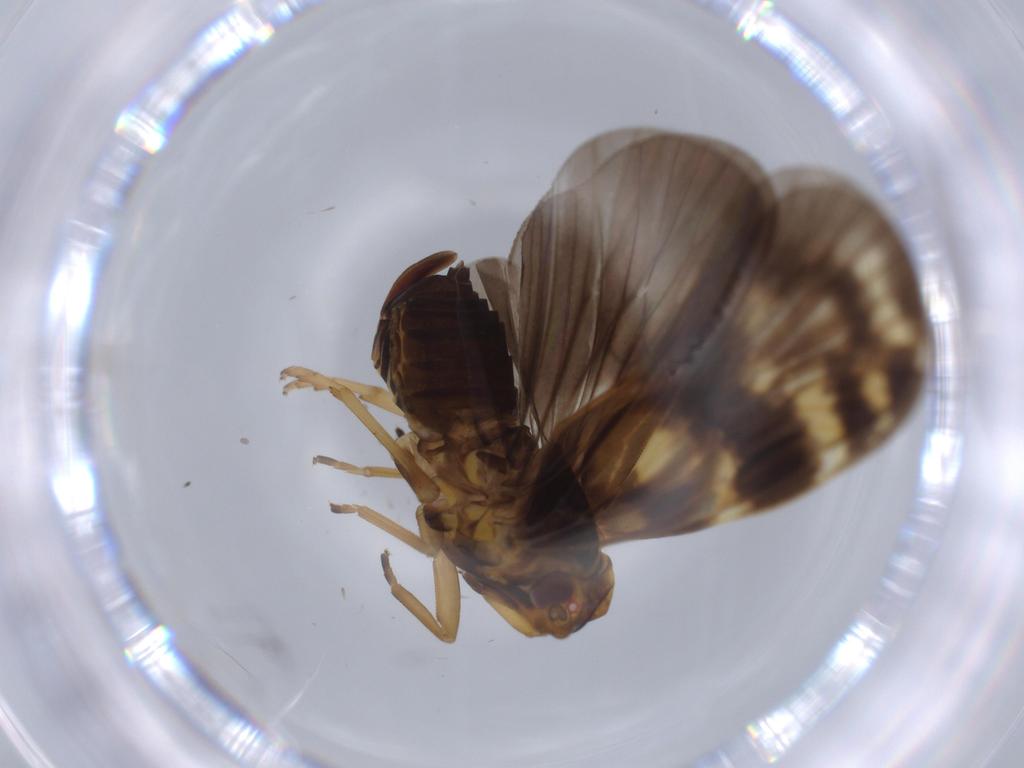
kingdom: Animalia
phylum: Arthropoda
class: Insecta
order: Hemiptera
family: Cixiidae
